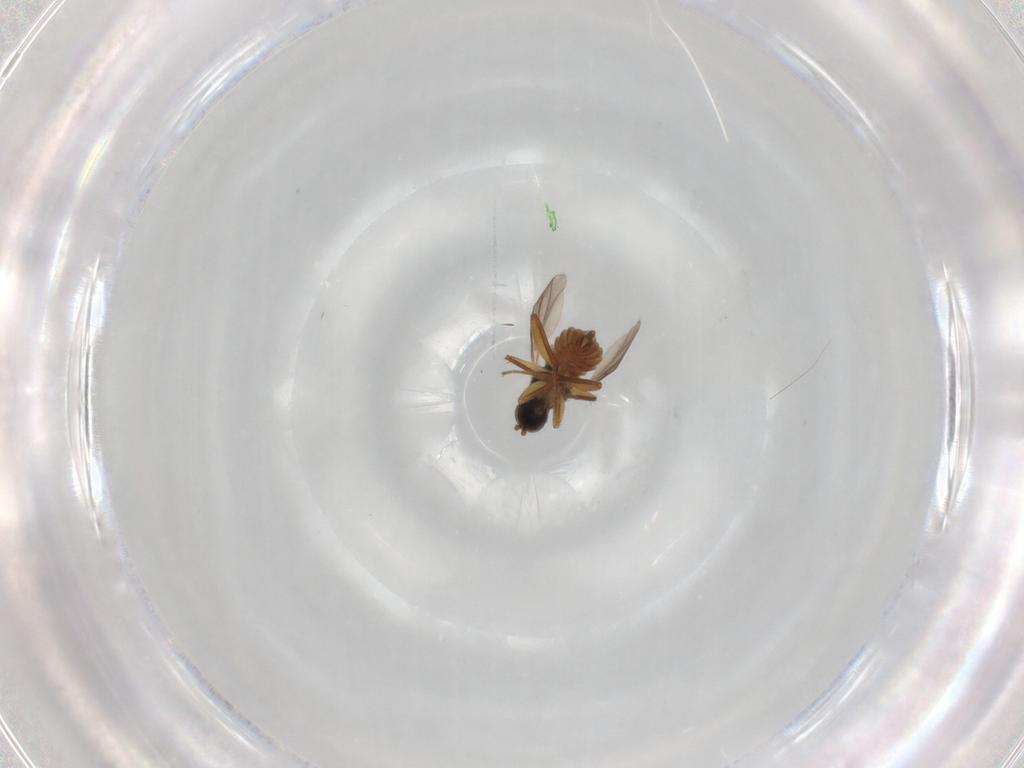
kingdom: Animalia
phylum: Arthropoda
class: Insecta
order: Diptera
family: Hybotidae
